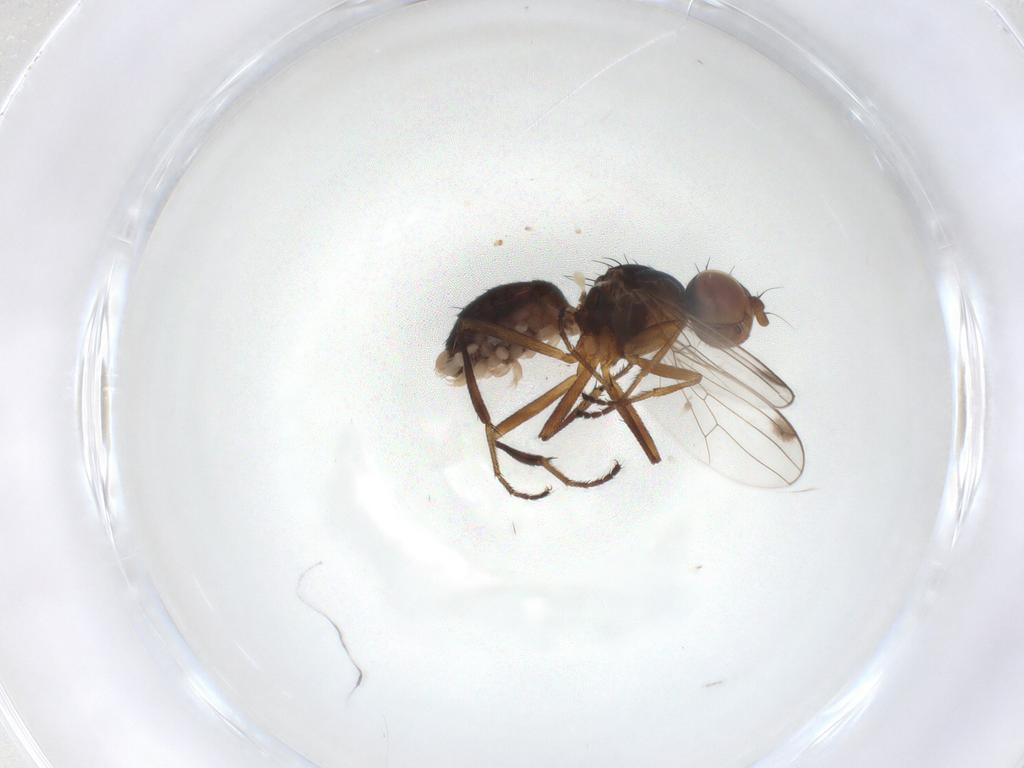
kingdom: Animalia
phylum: Arthropoda
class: Insecta
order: Diptera
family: Sepsidae
